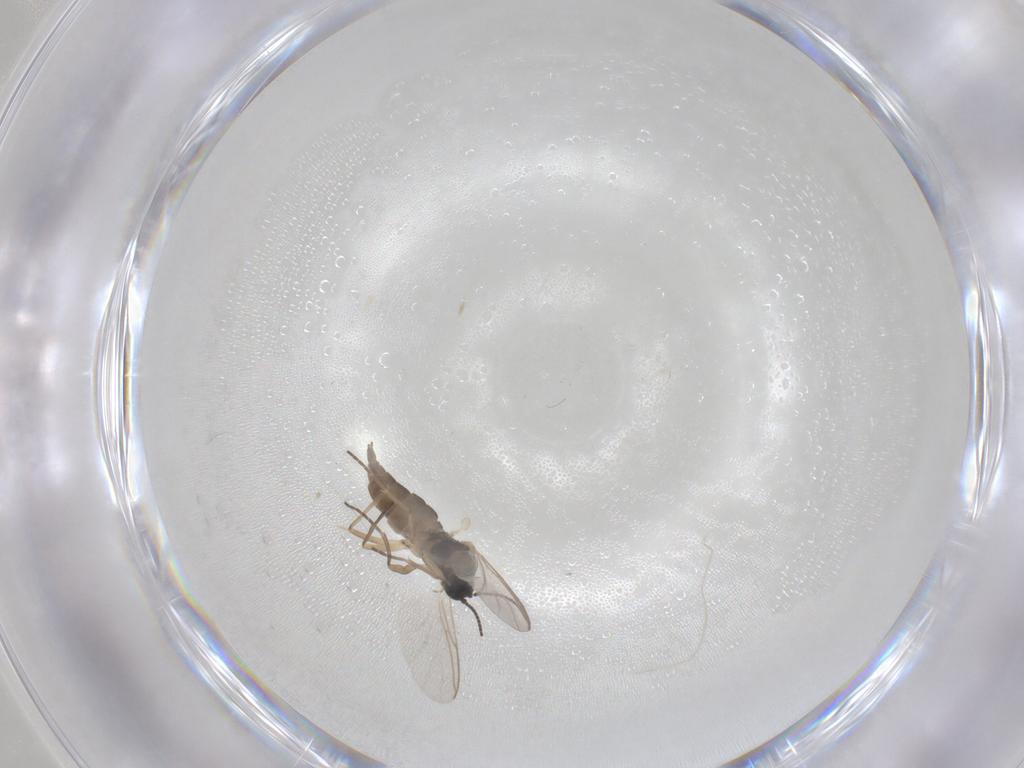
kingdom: Animalia
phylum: Arthropoda
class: Insecta
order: Diptera
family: Sciaridae
